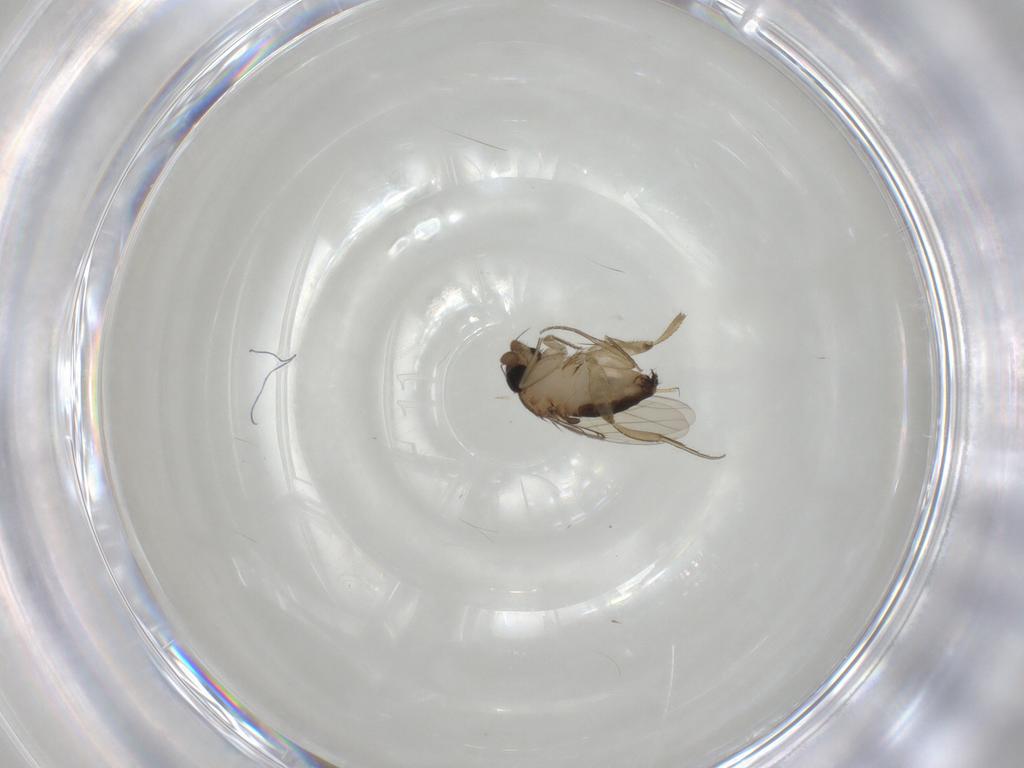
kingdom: Animalia
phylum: Arthropoda
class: Insecta
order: Diptera
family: Phoridae
